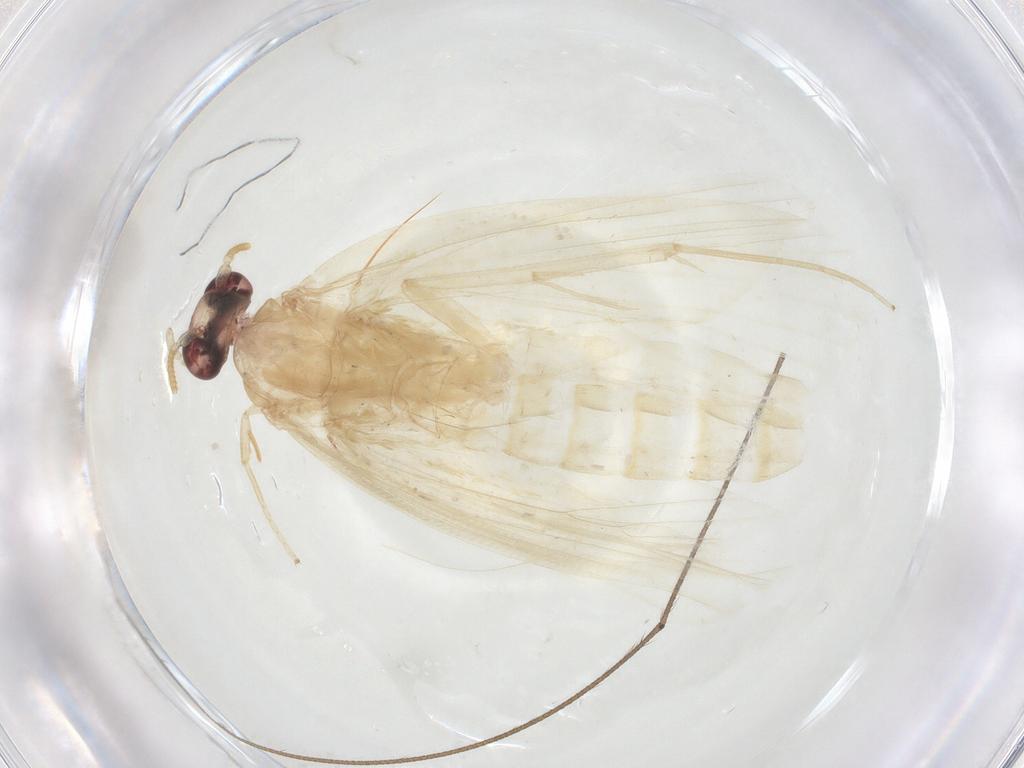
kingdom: Animalia
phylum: Arthropoda
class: Insecta
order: Lepidoptera
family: Psychidae
